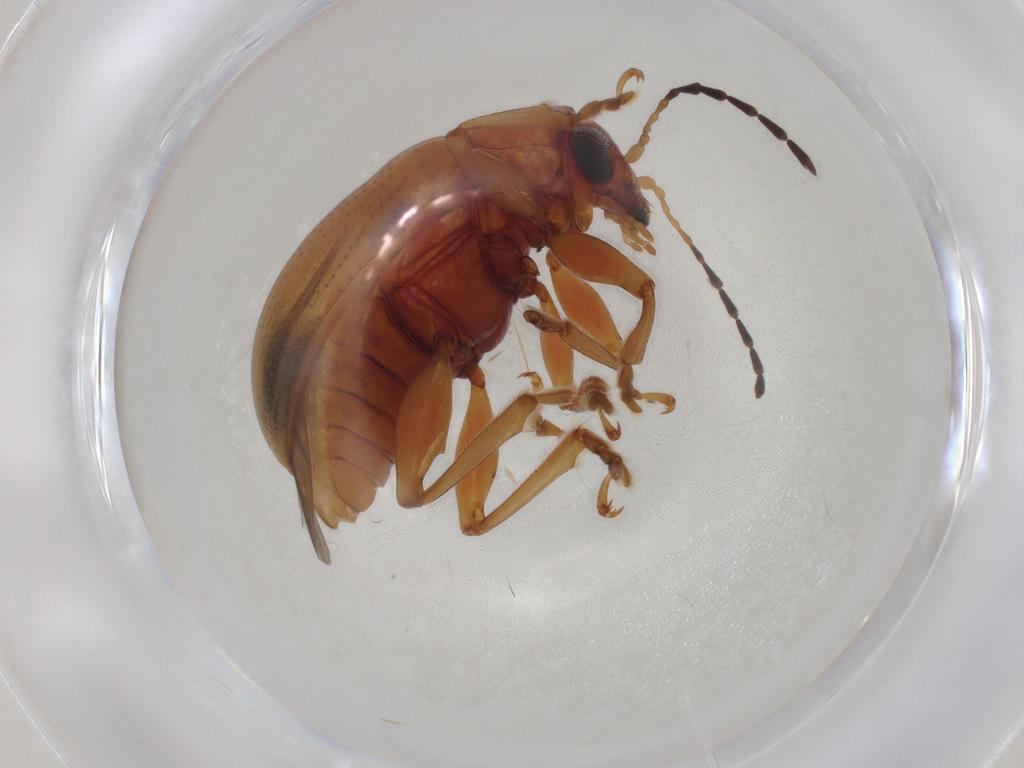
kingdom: Animalia
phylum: Arthropoda
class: Insecta
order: Coleoptera
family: Chrysomelidae
